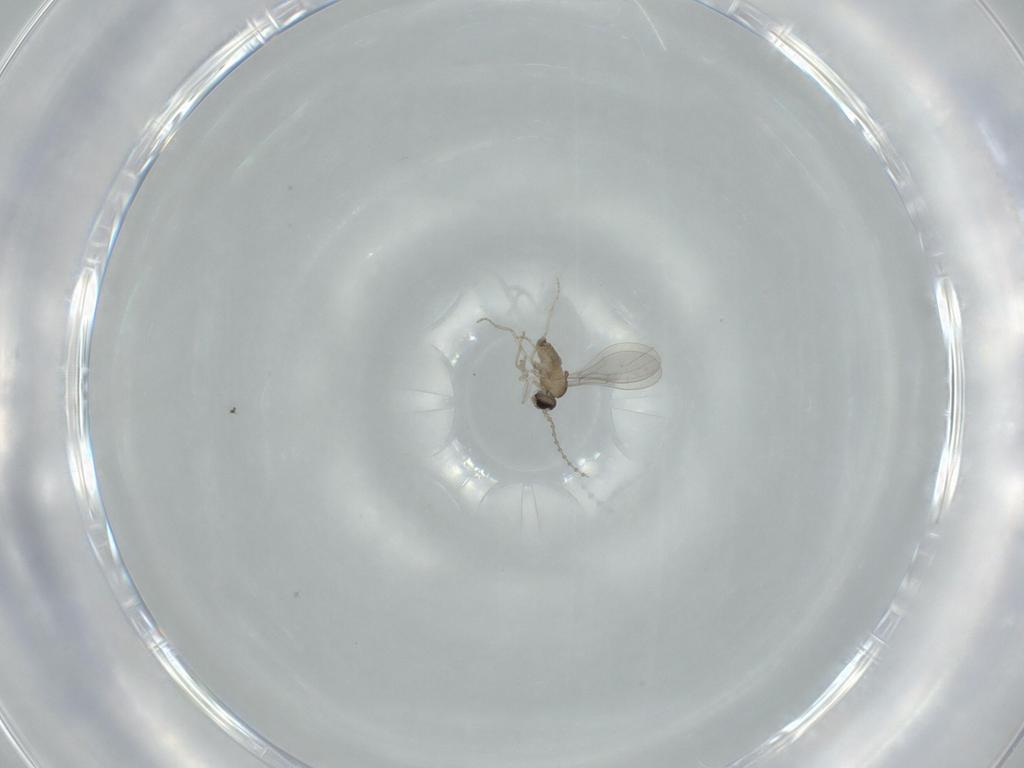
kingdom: Animalia
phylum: Arthropoda
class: Insecta
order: Diptera
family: Cecidomyiidae
